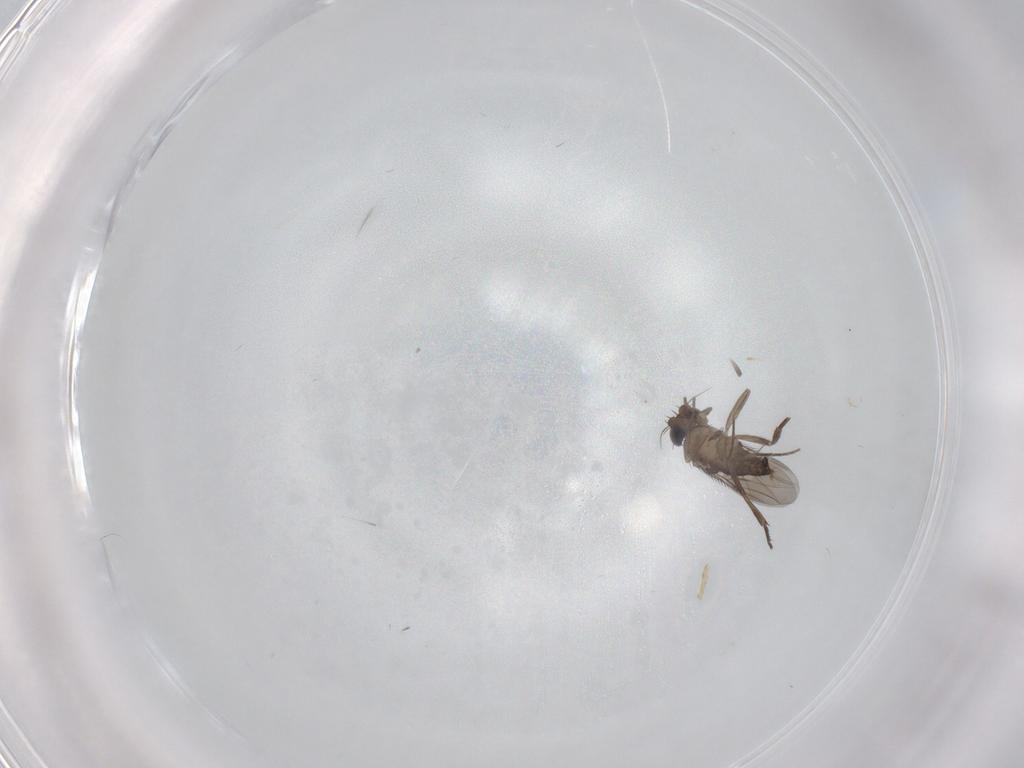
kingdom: Animalia
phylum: Arthropoda
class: Insecta
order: Diptera
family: Phoridae
